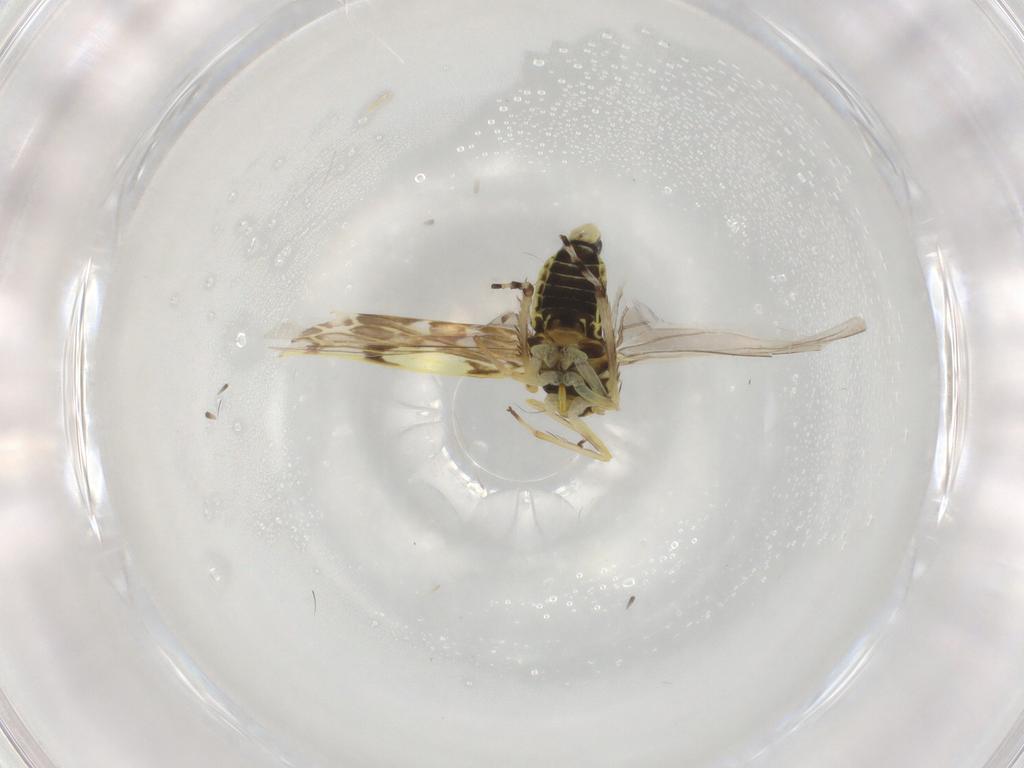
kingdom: Animalia
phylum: Arthropoda
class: Insecta
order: Hemiptera
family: Cicadellidae
